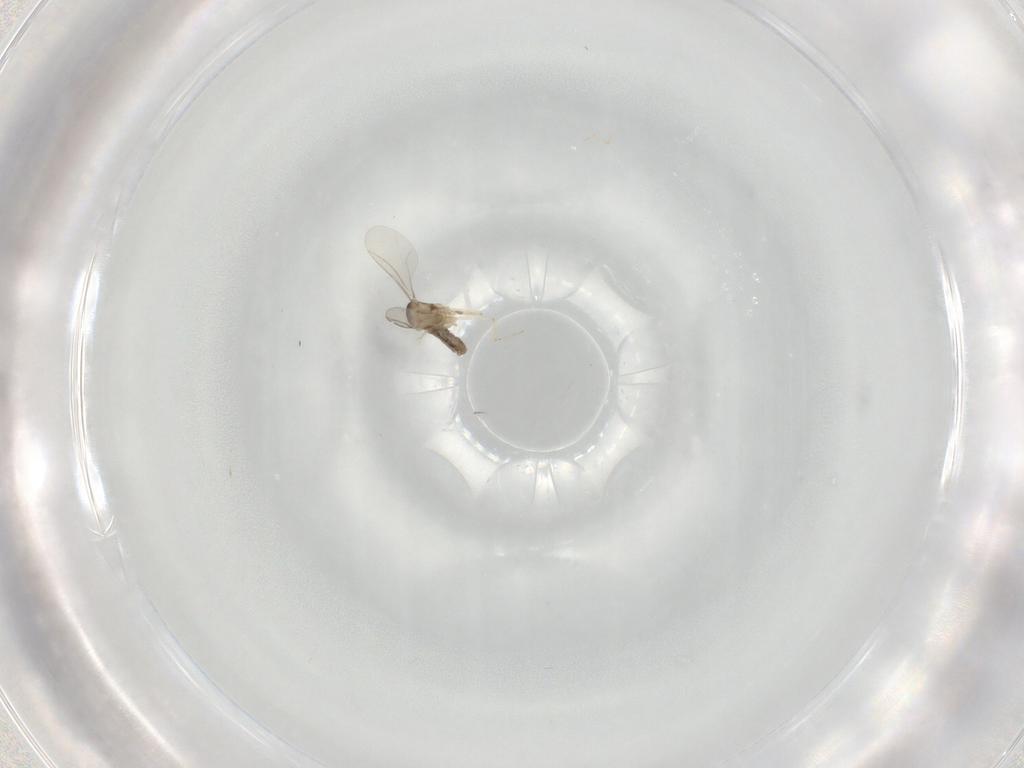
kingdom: Animalia
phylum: Arthropoda
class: Insecta
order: Diptera
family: Cecidomyiidae
